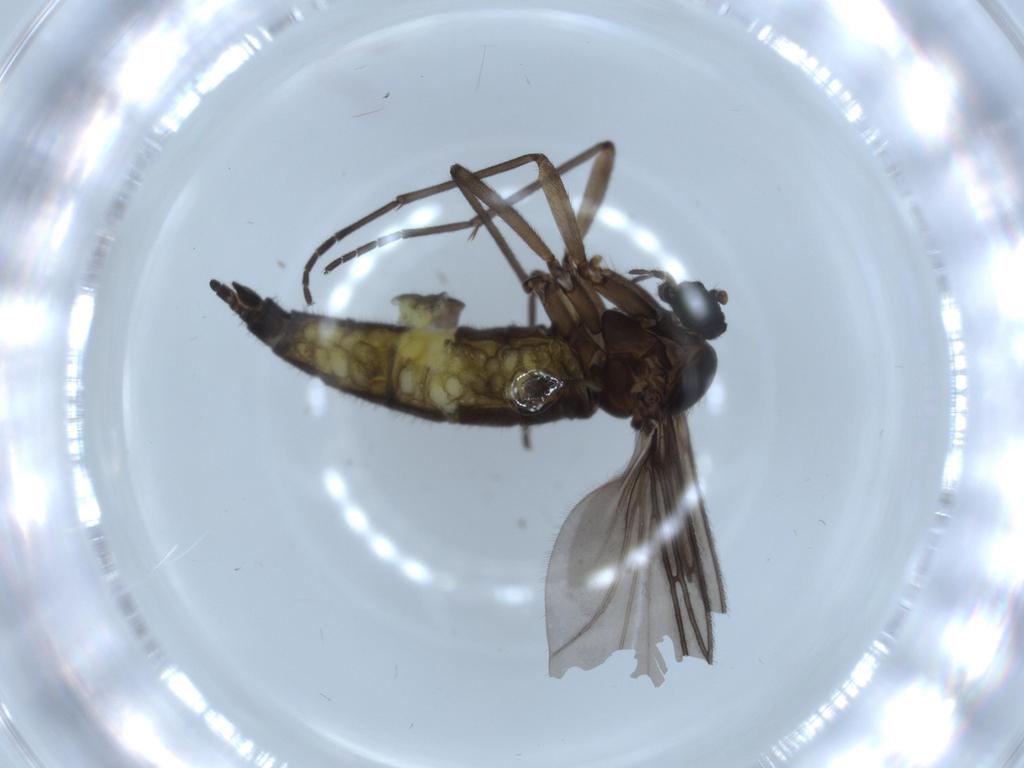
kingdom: Animalia
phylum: Arthropoda
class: Insecta
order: Diptera
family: Sciaridae
